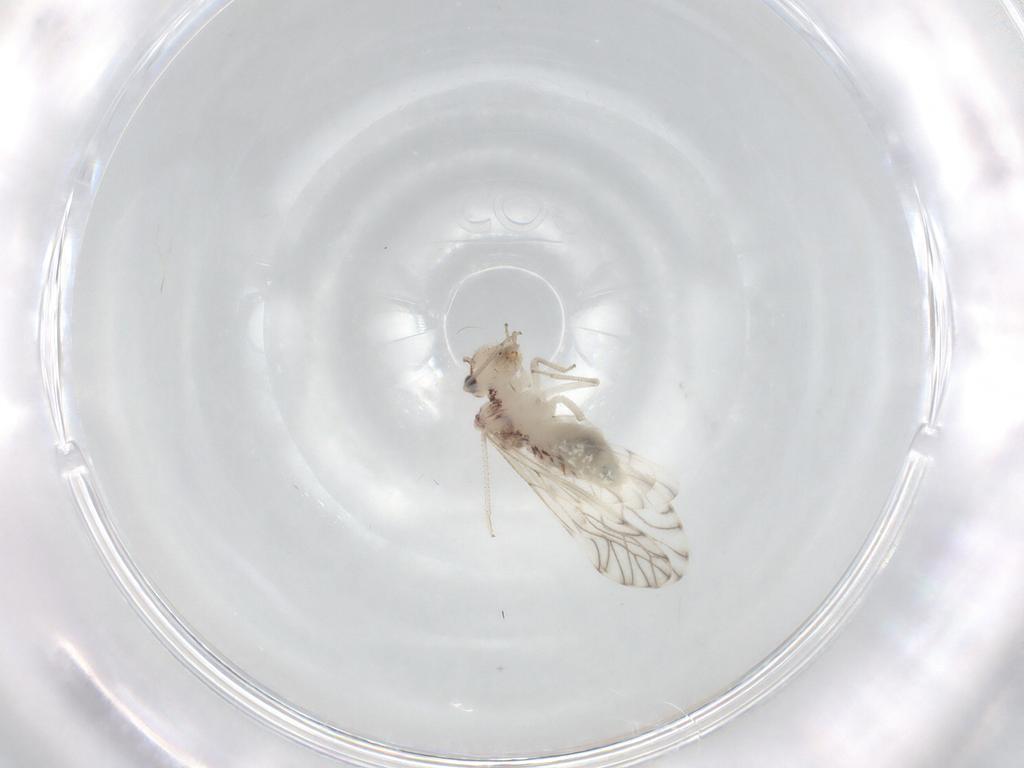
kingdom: Animalia
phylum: Arthropoda
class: Insecta
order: Psocodea
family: Philotarsidae
